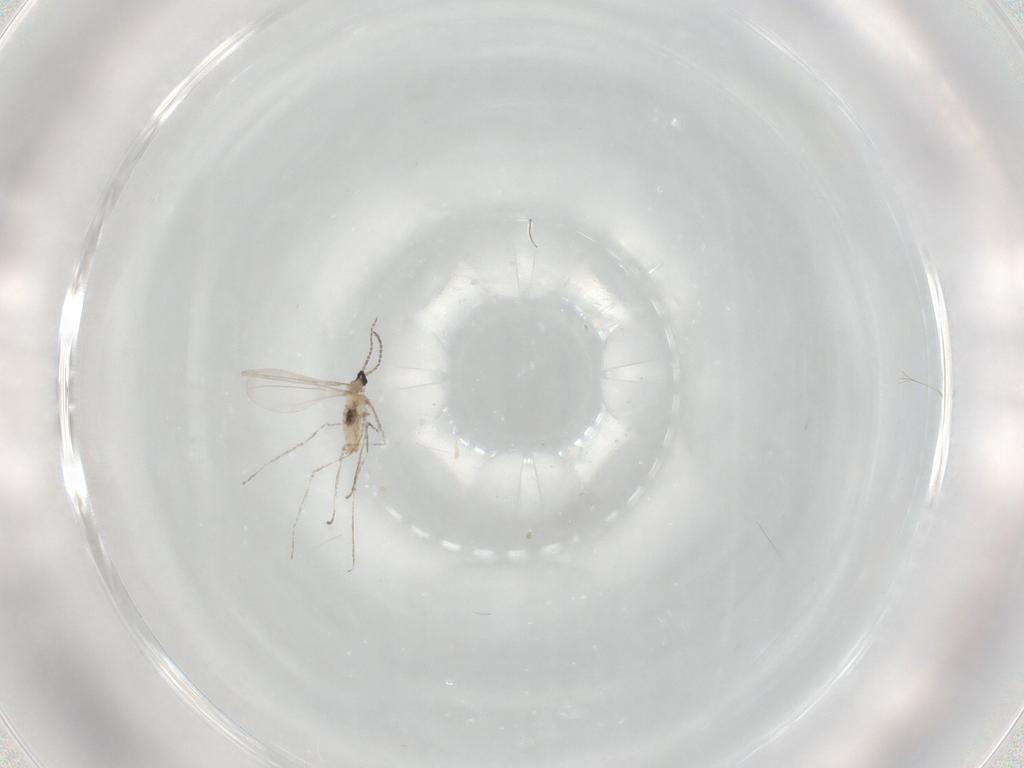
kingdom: Animalia
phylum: Arthropoda
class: Insecta
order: Diptera
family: Cecidomyiidae
